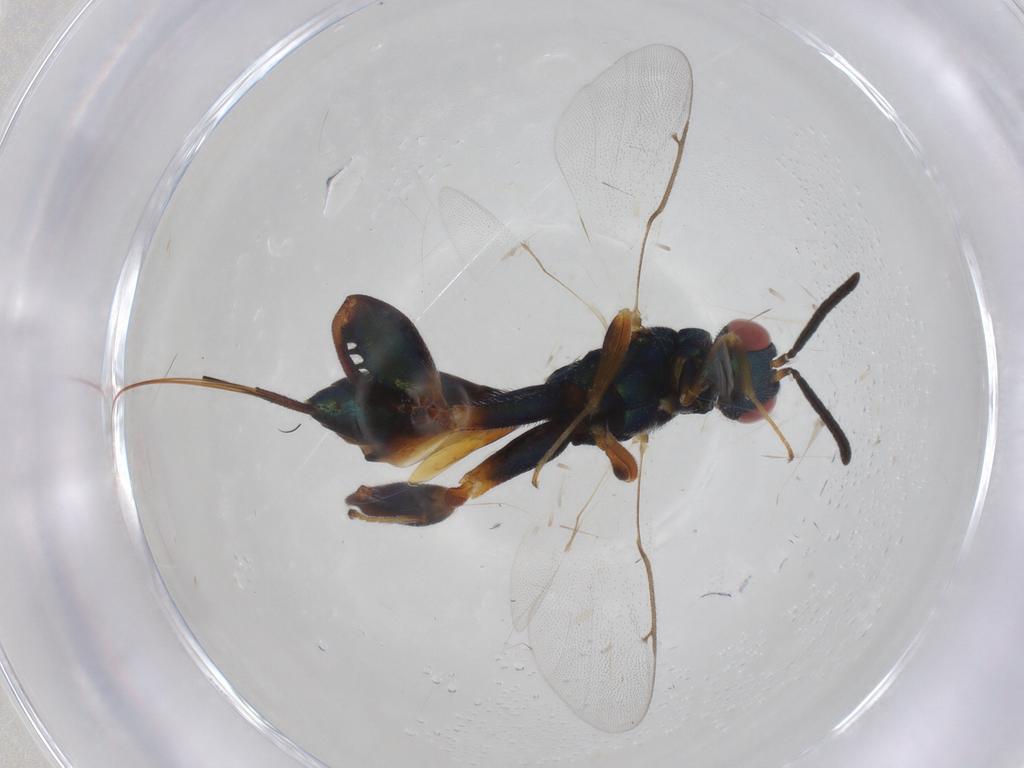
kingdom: Animalia
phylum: Arthropoda
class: Insecta
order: Hymenoptera
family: Torymidae
